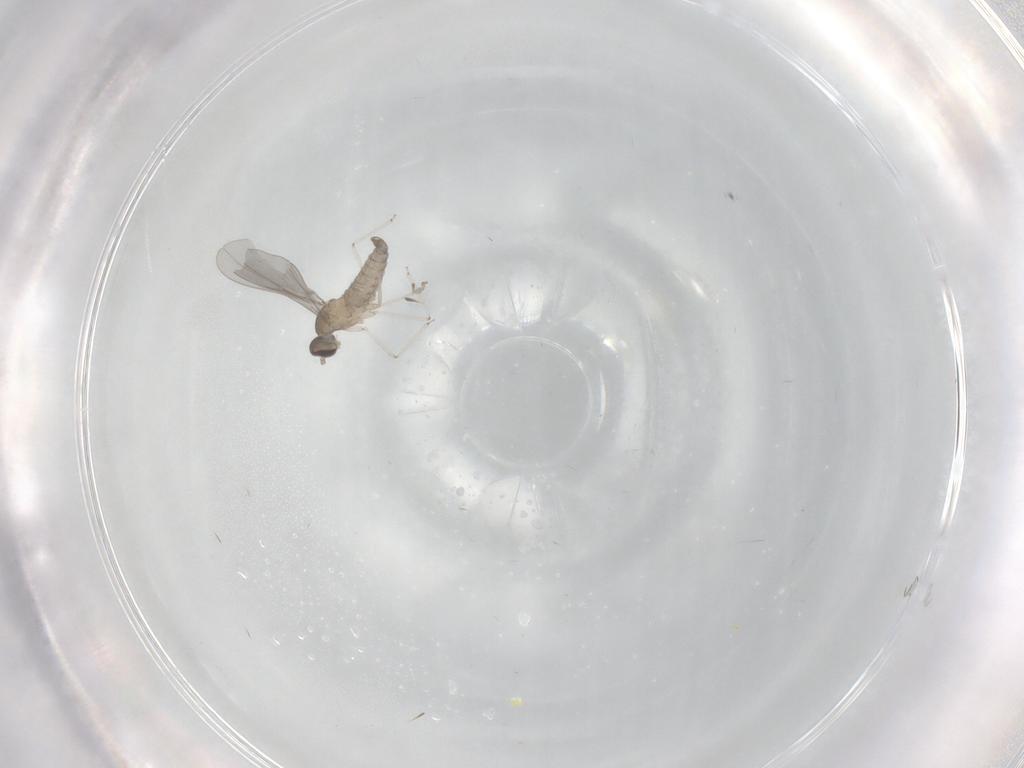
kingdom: Animalia
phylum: Arthropoda
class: Insecta
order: Diptera
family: Cecidomyiidae
